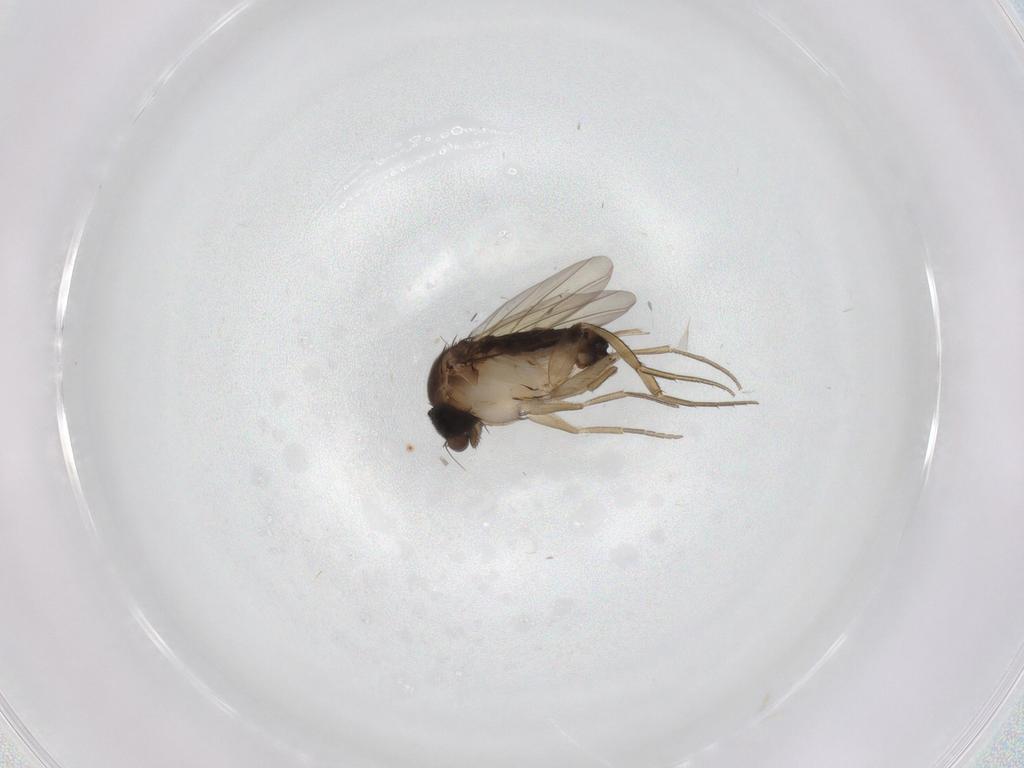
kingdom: Animalia
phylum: Arthropoda
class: Insecta
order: Diptera
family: Phoridae
